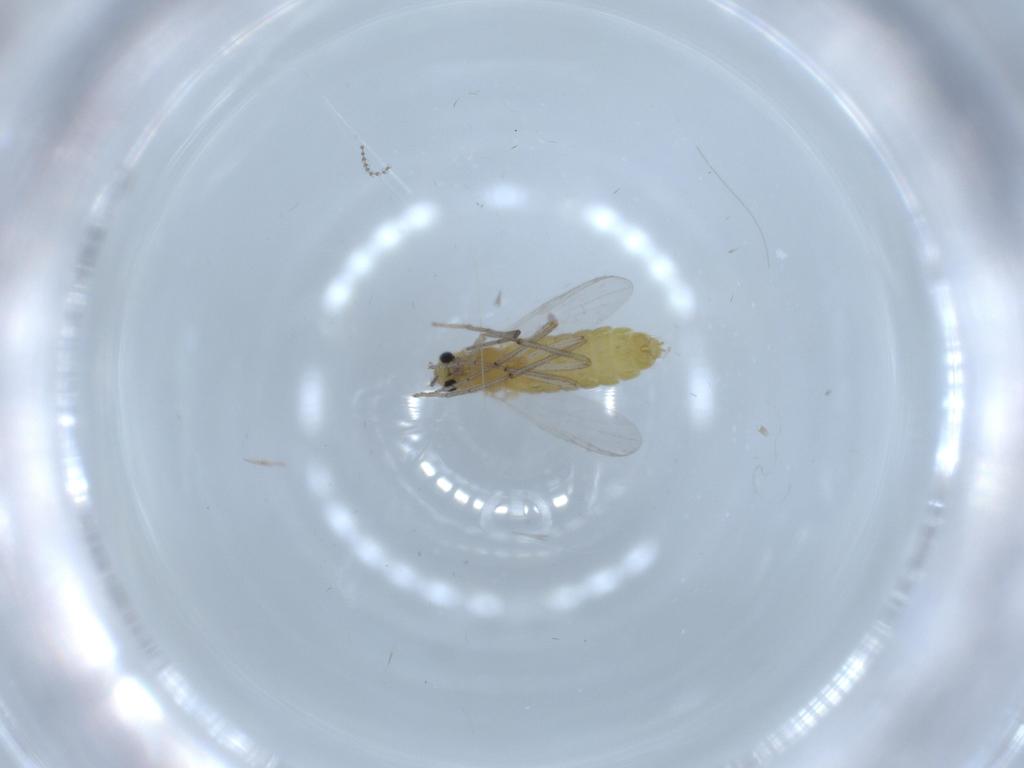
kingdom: Animalia
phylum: Arthropoda
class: Insecta
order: Diptera
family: Chironomidae
